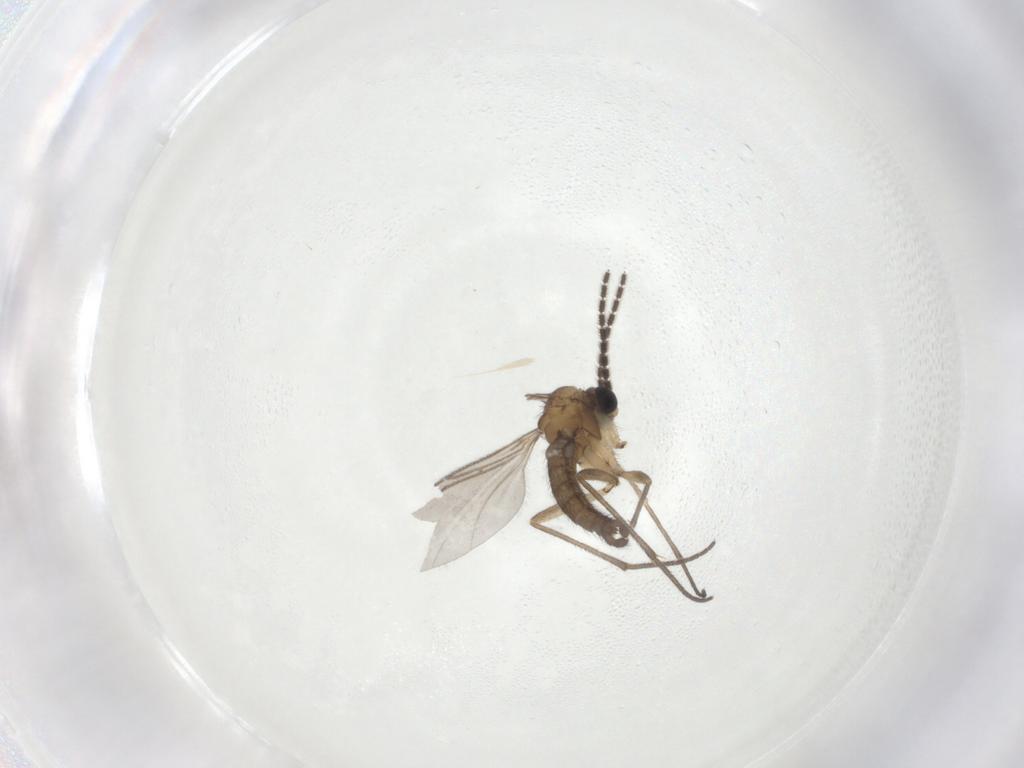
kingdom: Animalia
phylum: Arthropoda
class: Insecta
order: Diptera
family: Sciaridae
